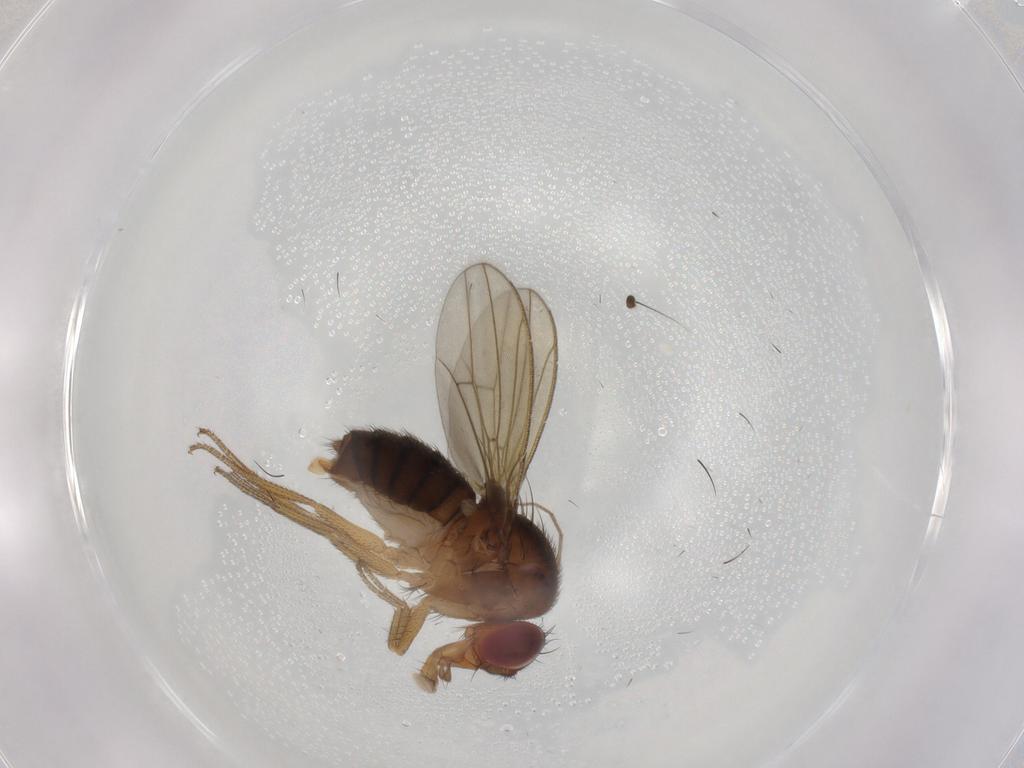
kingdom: Animalia
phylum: Arthropoda
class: Insecta
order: Diptera
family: Drosophilidae
